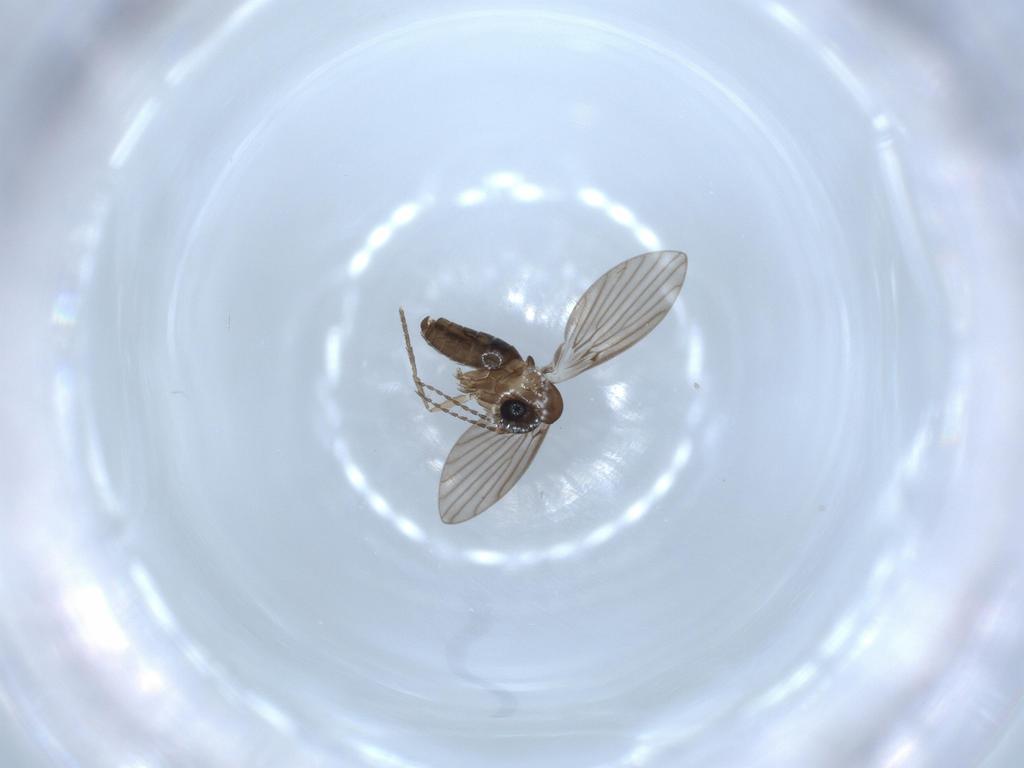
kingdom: Animalia
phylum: Arthropoda
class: Insecta
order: Diptera
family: Psychodidae
